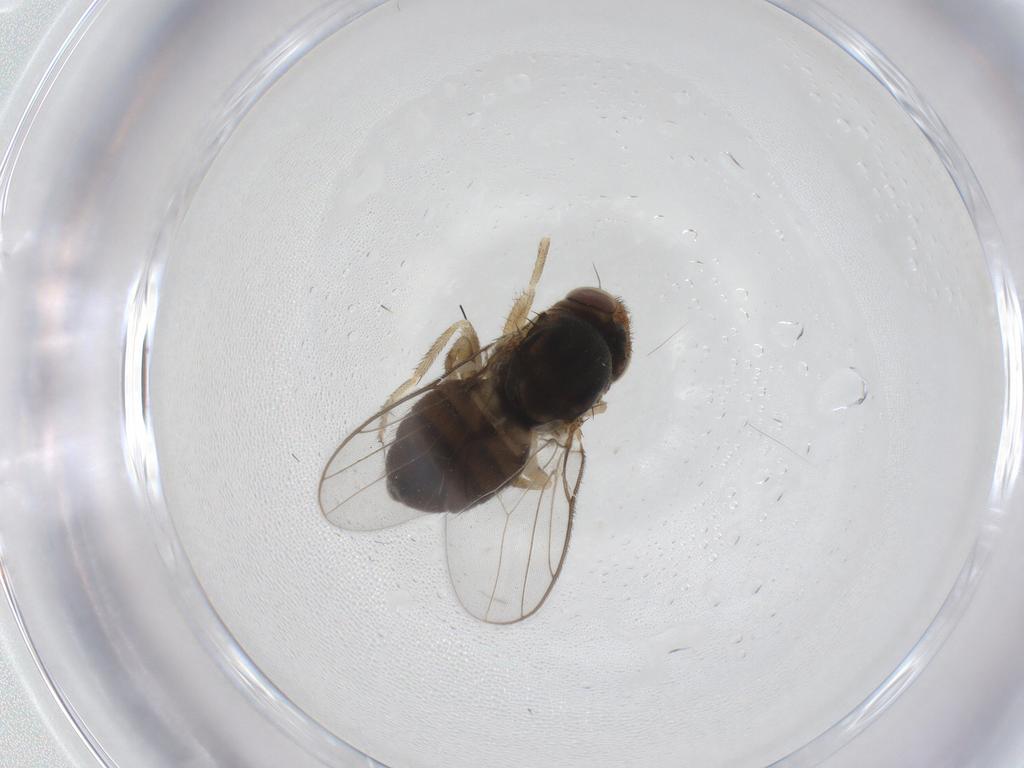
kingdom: Animalia
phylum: Arthropoda
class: Insecta
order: Diptera
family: Chloropidae
